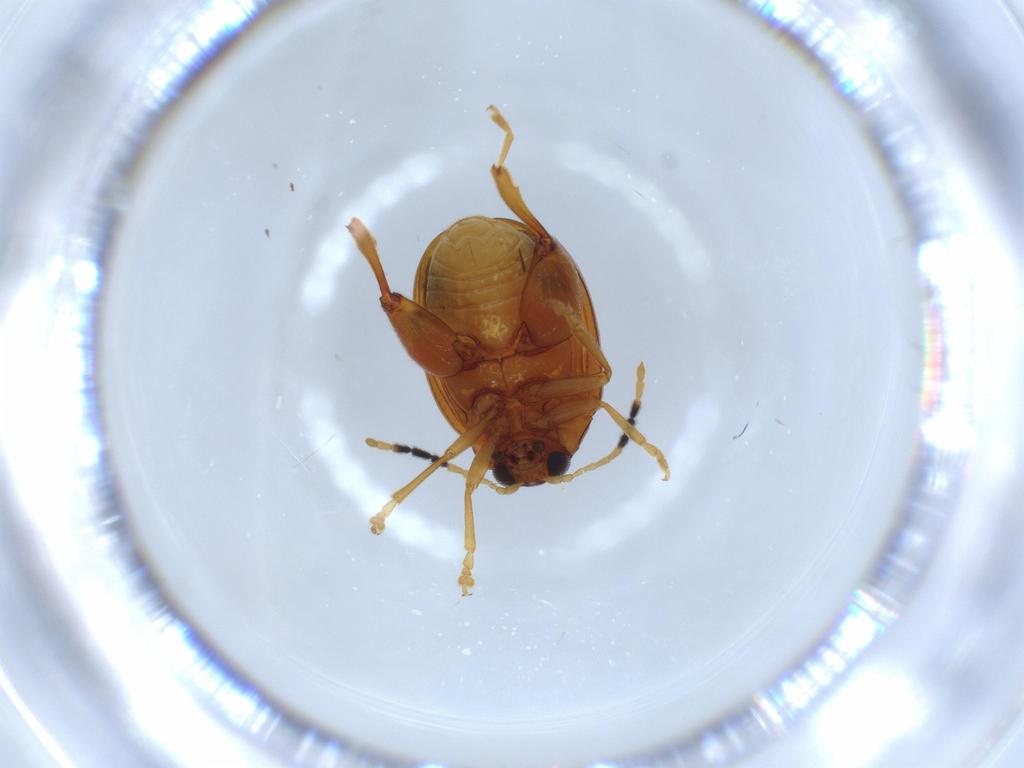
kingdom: Animalia
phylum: Arthropoda
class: Insecta
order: Coleoptera
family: Chrysomelidae
